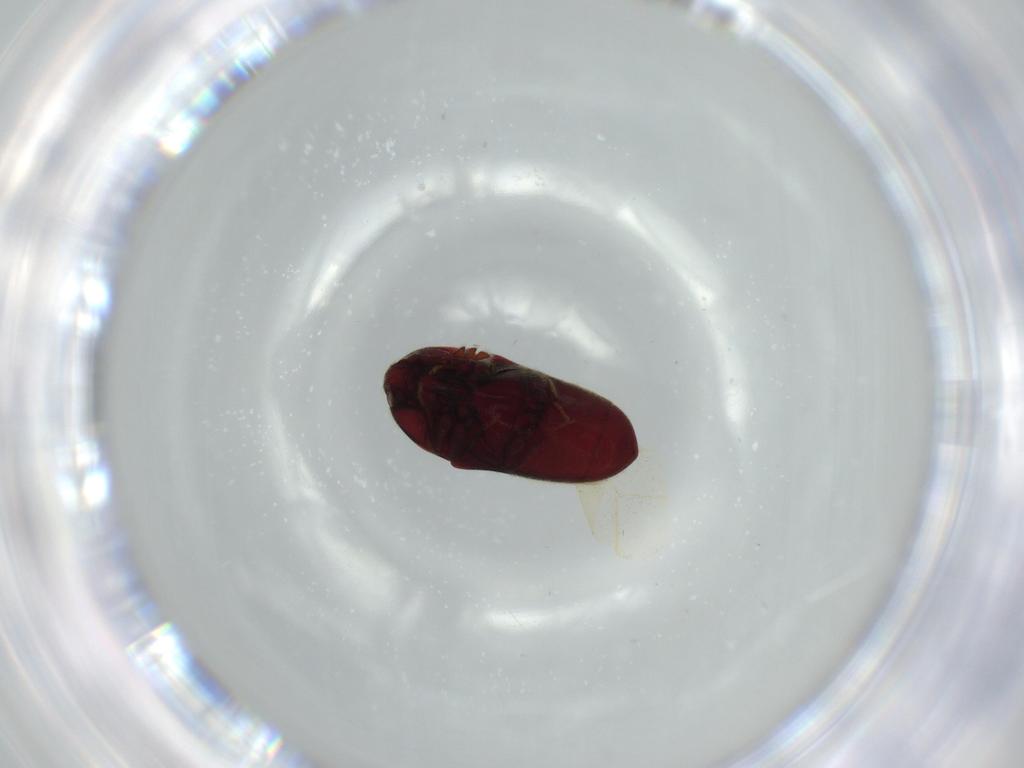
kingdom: Animalia
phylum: Arthropoda
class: Insecta
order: Coleoptera
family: Throscidae
